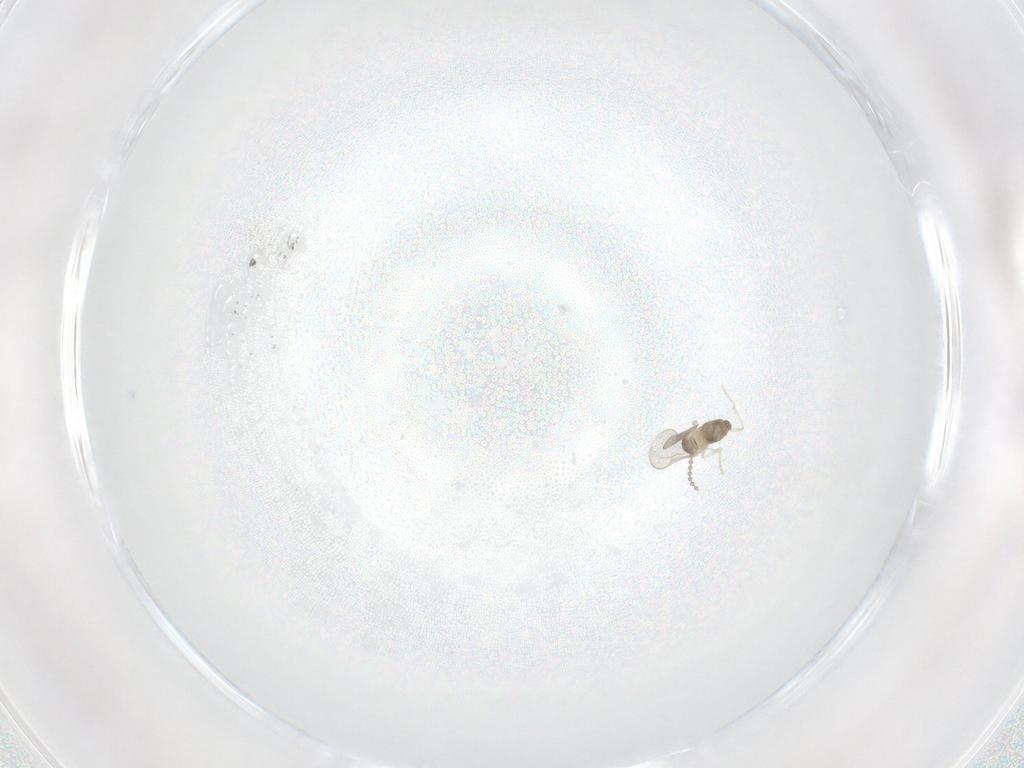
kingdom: Animalia
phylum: Arthropoda
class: Insecta
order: Diptera
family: Cecidomyiidae
